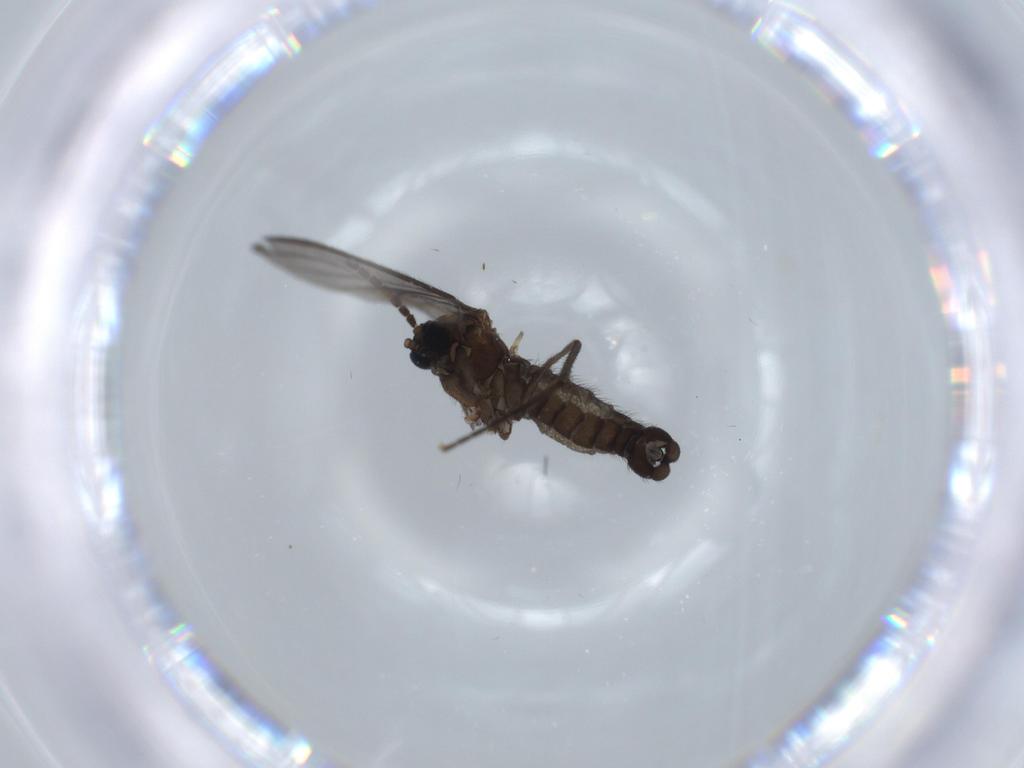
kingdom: Animalia
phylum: Arthropoda
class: Insecta
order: Diptera
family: Sciaridae
